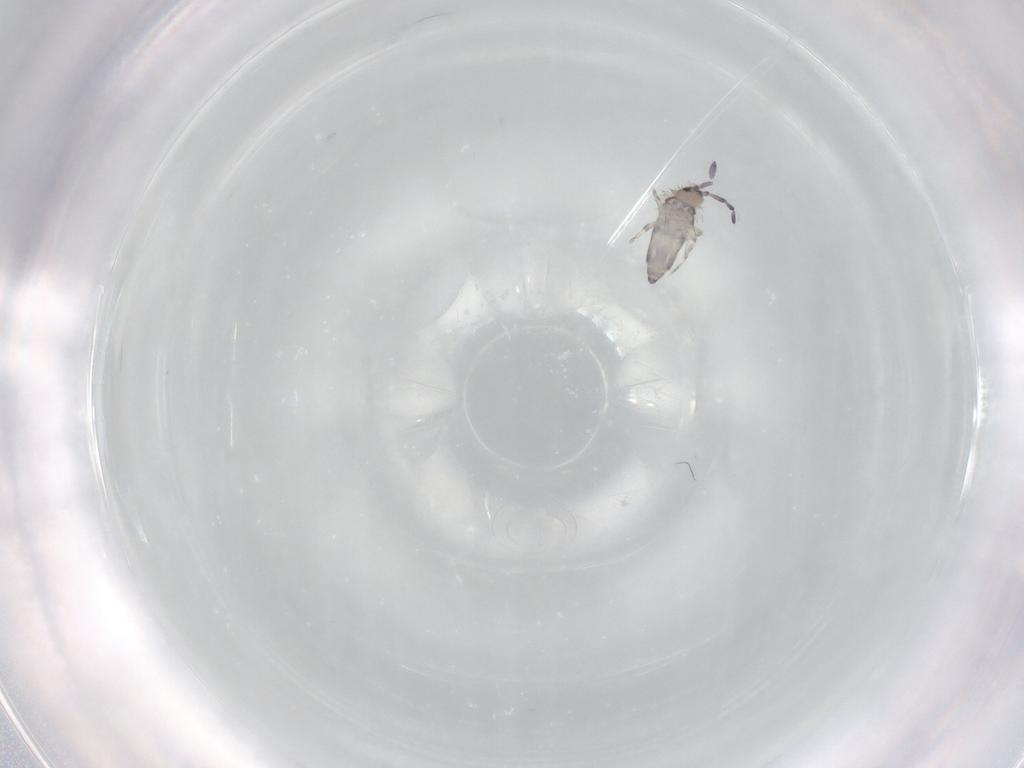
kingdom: Animalia
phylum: Arthropoda
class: Collembola
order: Entomobryomorpha
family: Entomobryidae
